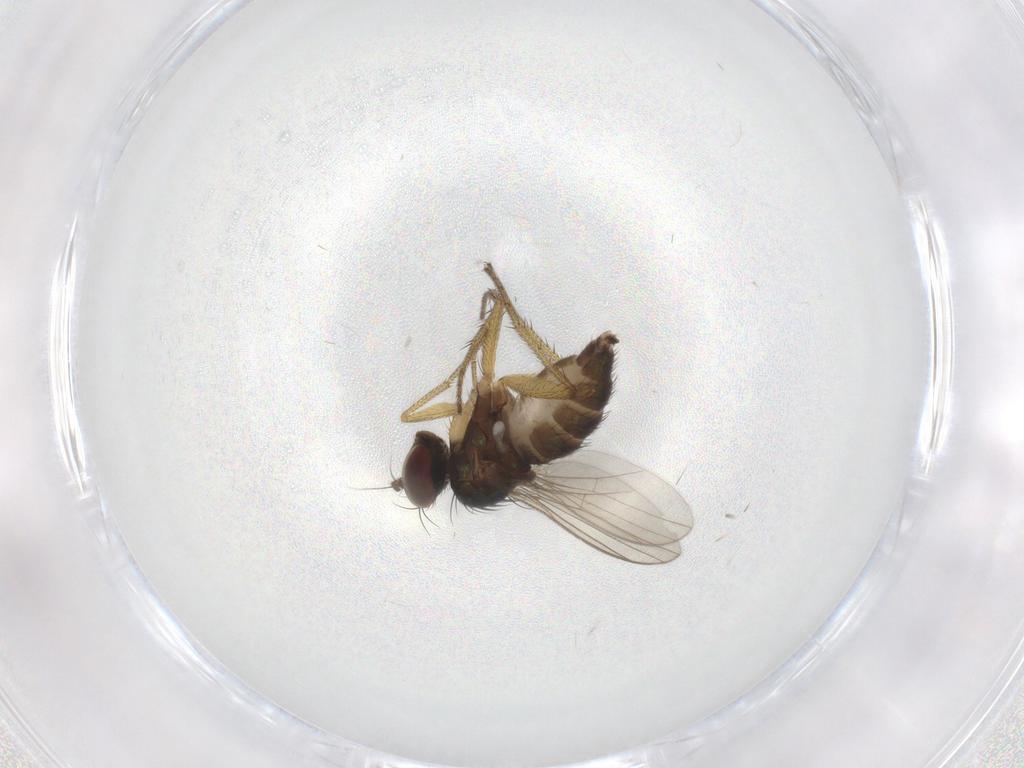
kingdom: Animalia
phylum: Arthropoda
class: Insecta
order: Diptera
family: Dolichopodidae
